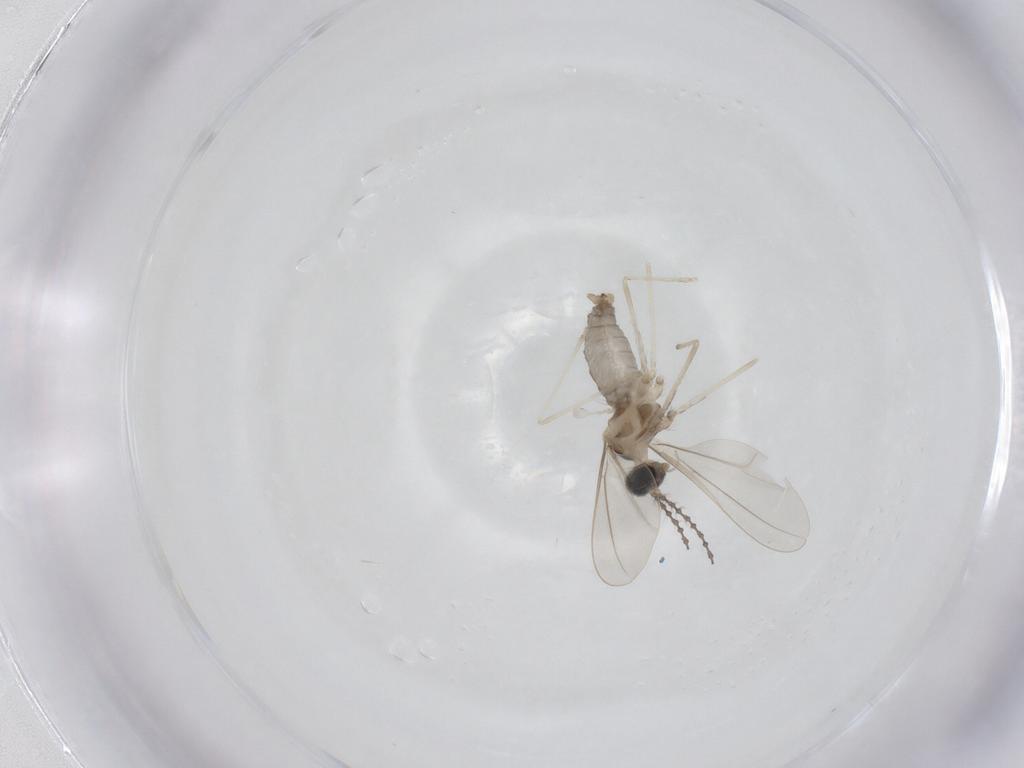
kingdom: Animalia
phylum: Arthropoda
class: Insecta
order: Diptera
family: Cecidomyiidae
